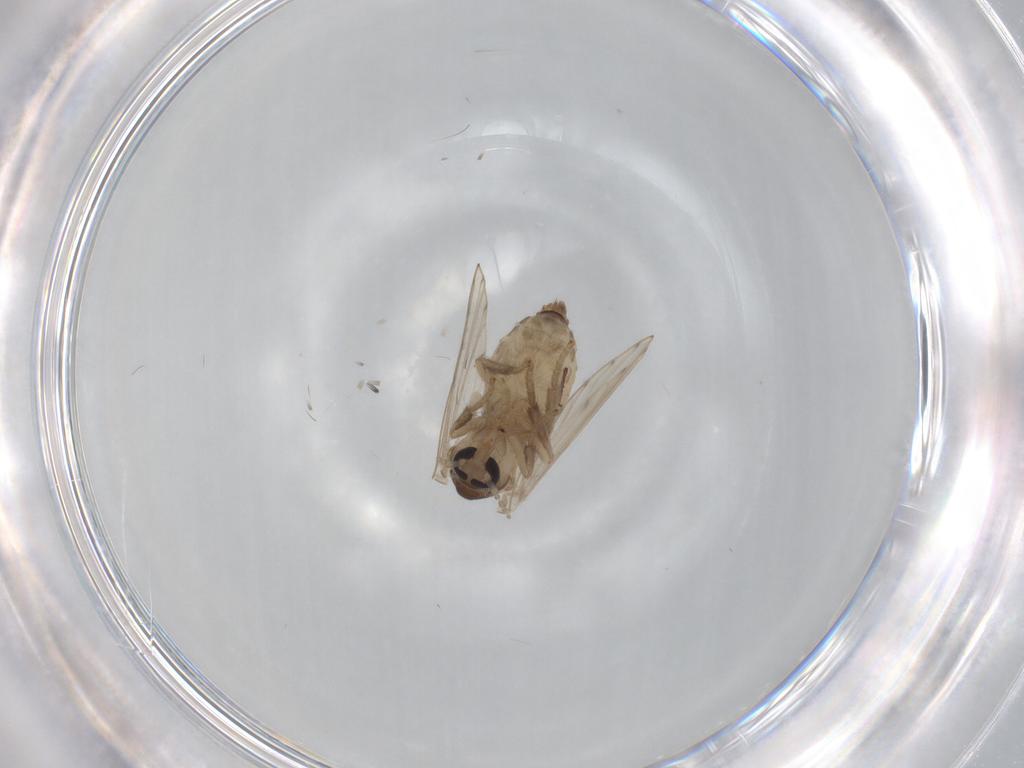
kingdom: Animalia
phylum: Arthropoda
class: Insecta
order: Diptera
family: Psychodidae
